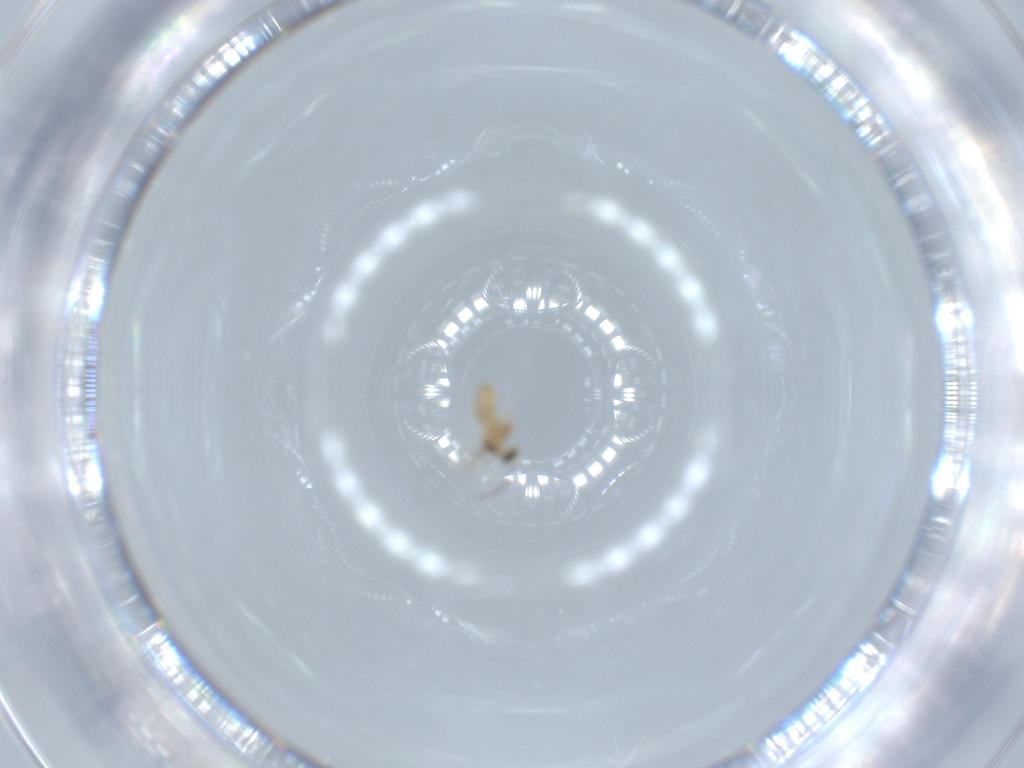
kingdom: Animalia
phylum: Arthropoda
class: Insecta
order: Diptera
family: Cecidomyiidae
